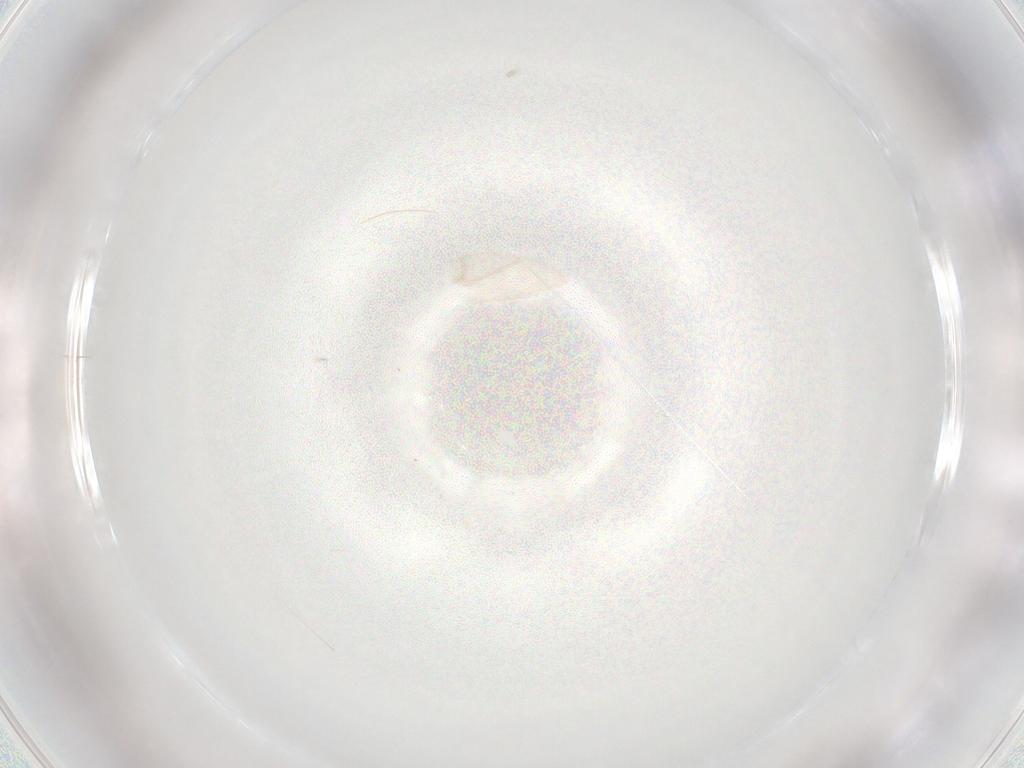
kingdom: Animalia
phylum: Arthropoda
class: Insecta
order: Diptera
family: Cecidomyiidae
